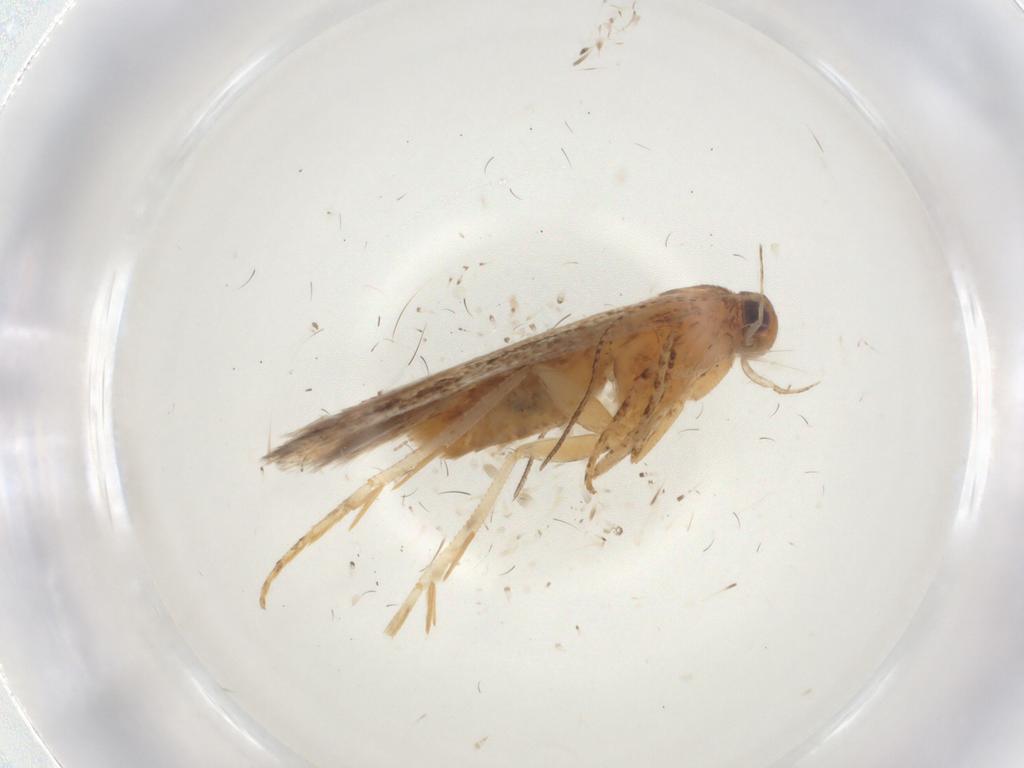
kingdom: Animalia
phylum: Arthropoda
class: Insecta
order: Lepidoptera
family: Gelechiidae
